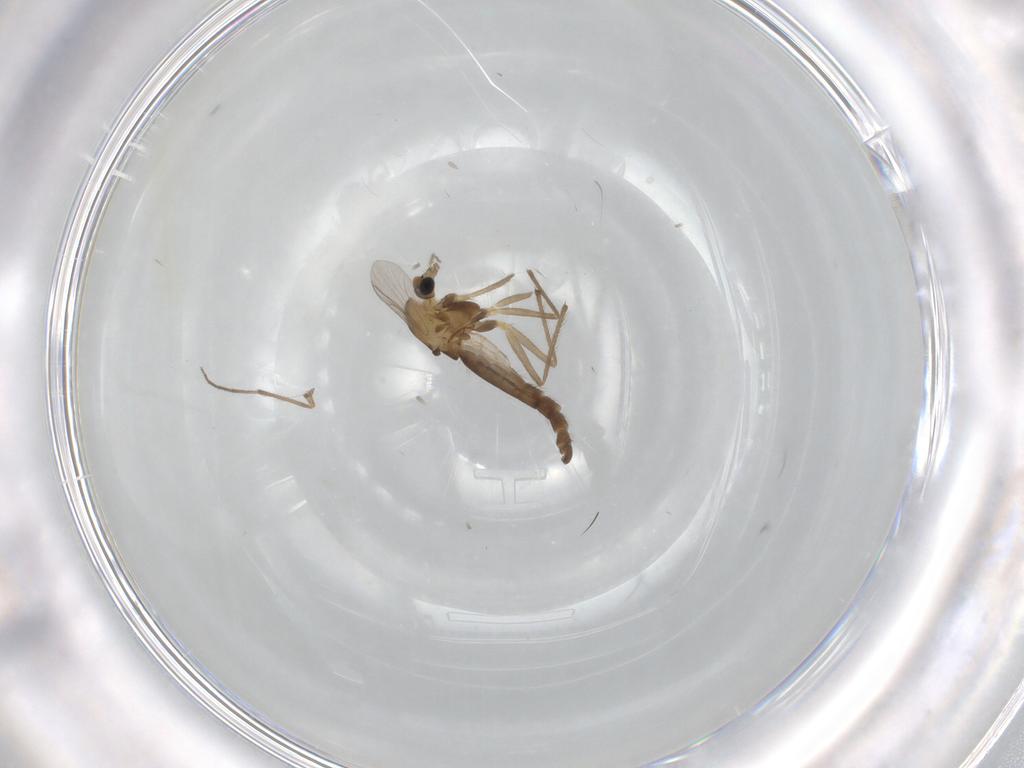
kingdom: Animalia
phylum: Arthropoda
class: Insecta
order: Diptera
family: Chironomidae
